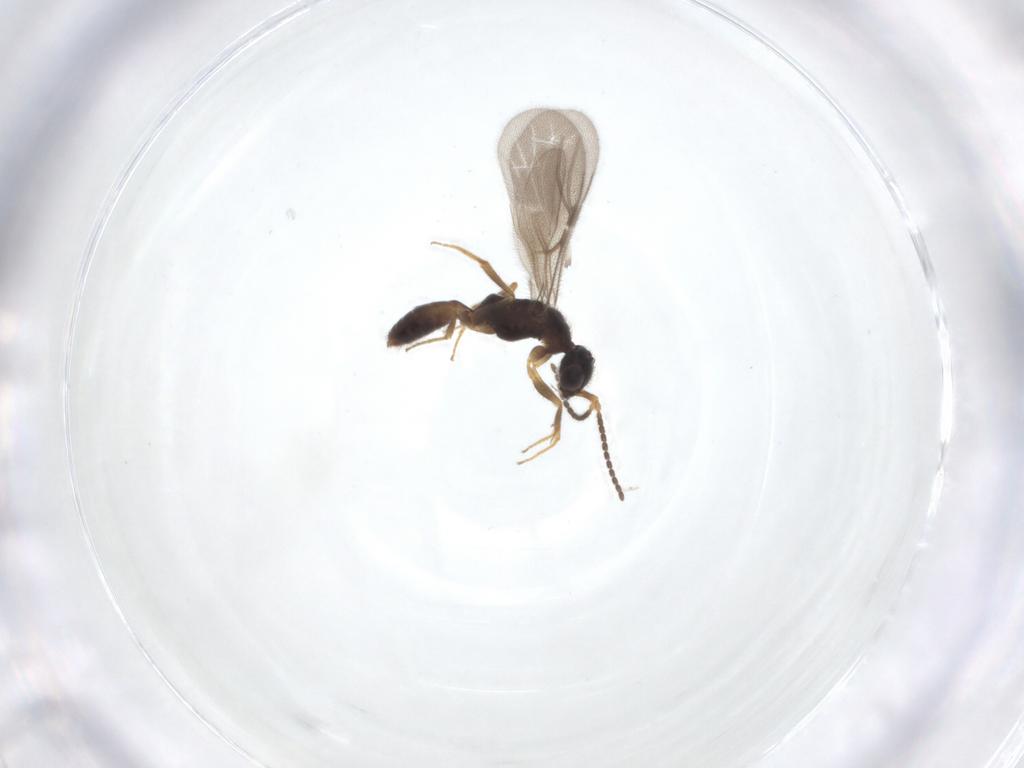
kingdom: Animalia
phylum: Arthropoda
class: Insecta
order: Hymenoptera
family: Bethylidae
